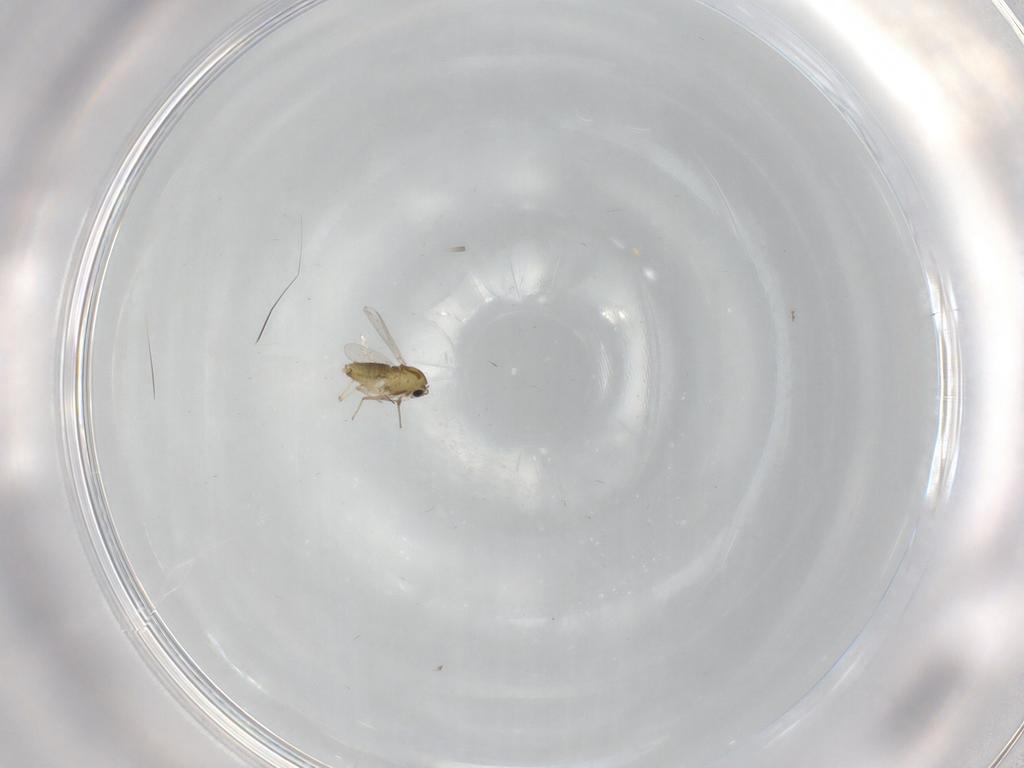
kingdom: Animalia
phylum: Arthropoda
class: Insecta
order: Diptera
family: Chironomidae
